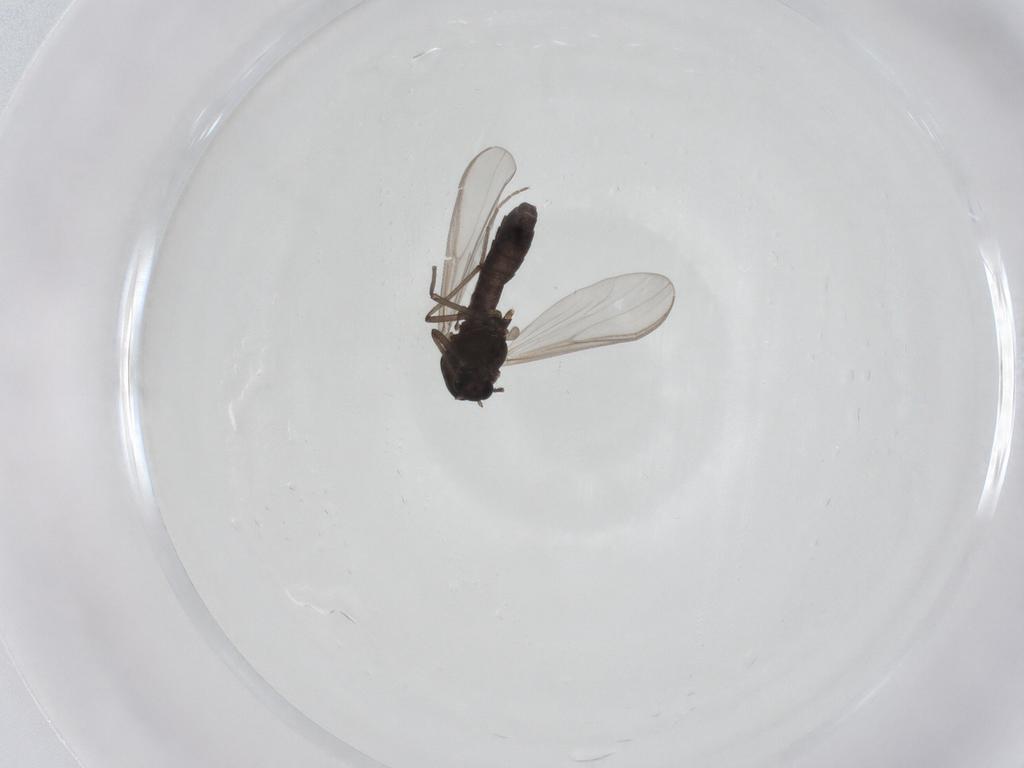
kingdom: Animalia
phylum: Arthropoda
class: Insecta
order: Diptera
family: Chironomidae
